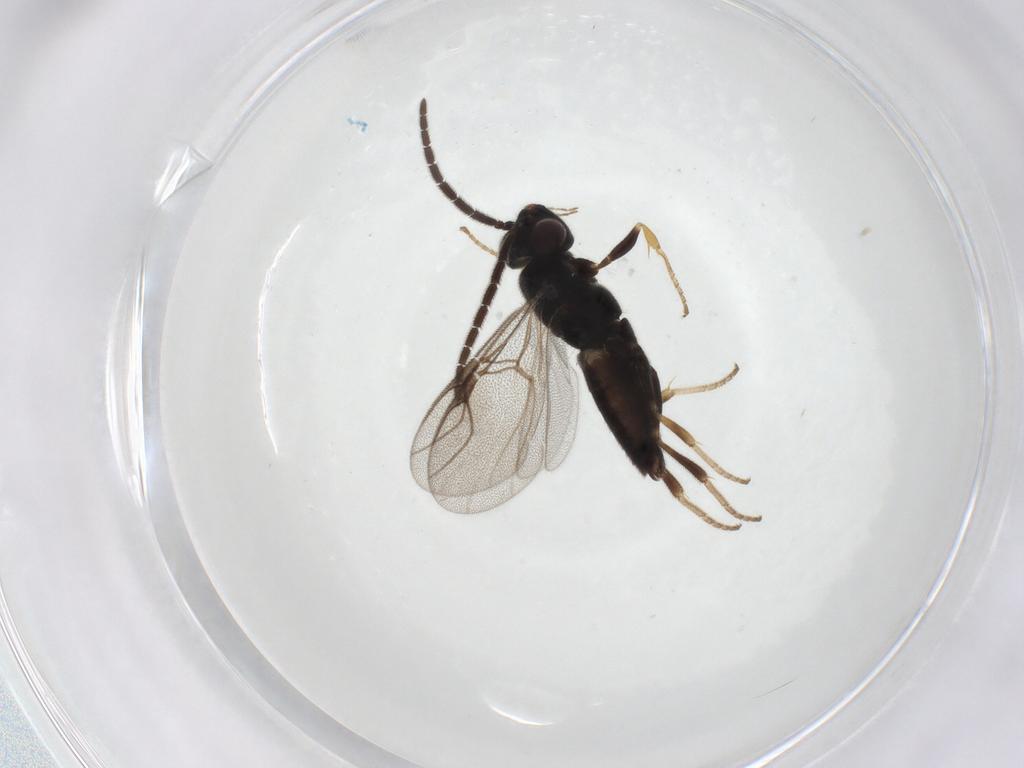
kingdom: Animalia
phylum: Arthropoda
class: Insecta
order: Hymenoptera
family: Dryinidae
